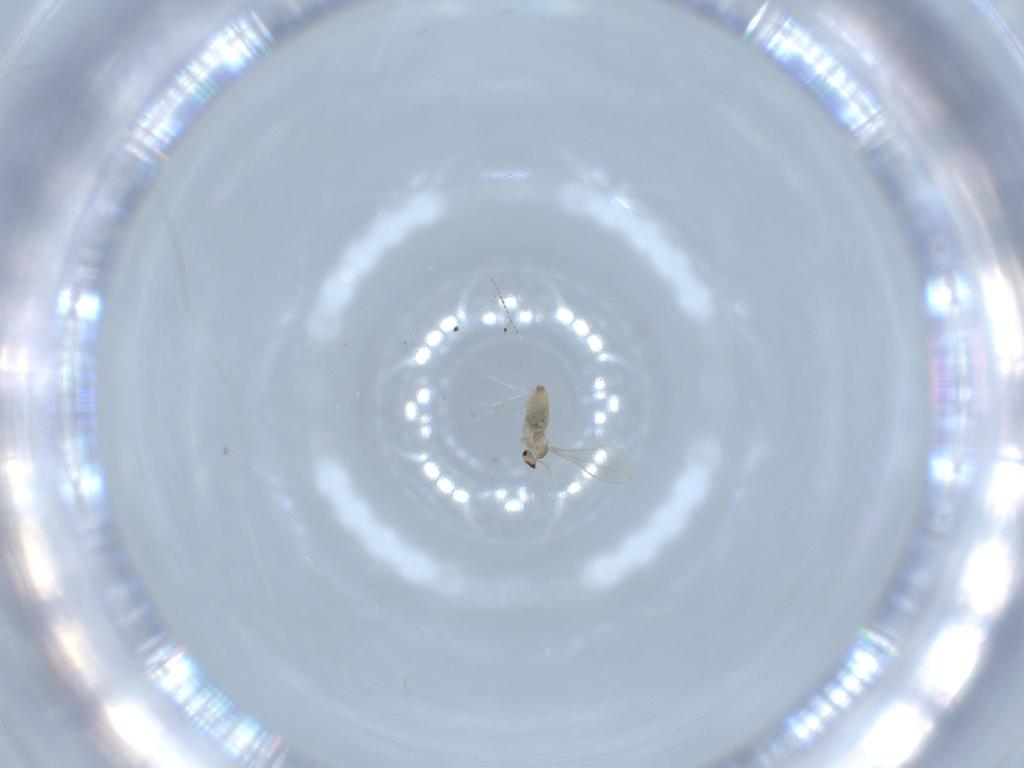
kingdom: Animalia
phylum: Arthropoda
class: Insecta
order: Diptera
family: Cecidomyiidae
